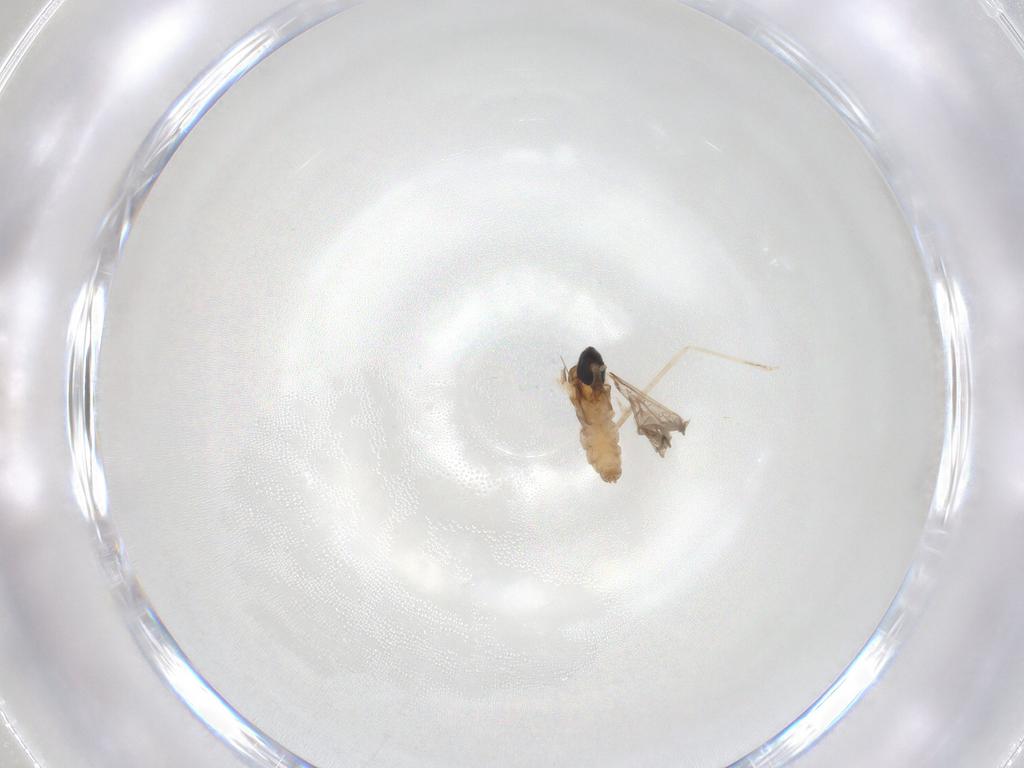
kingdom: Animalia
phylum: Arthropoda
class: Insecta
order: Diptera
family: Cecidomyiidae
